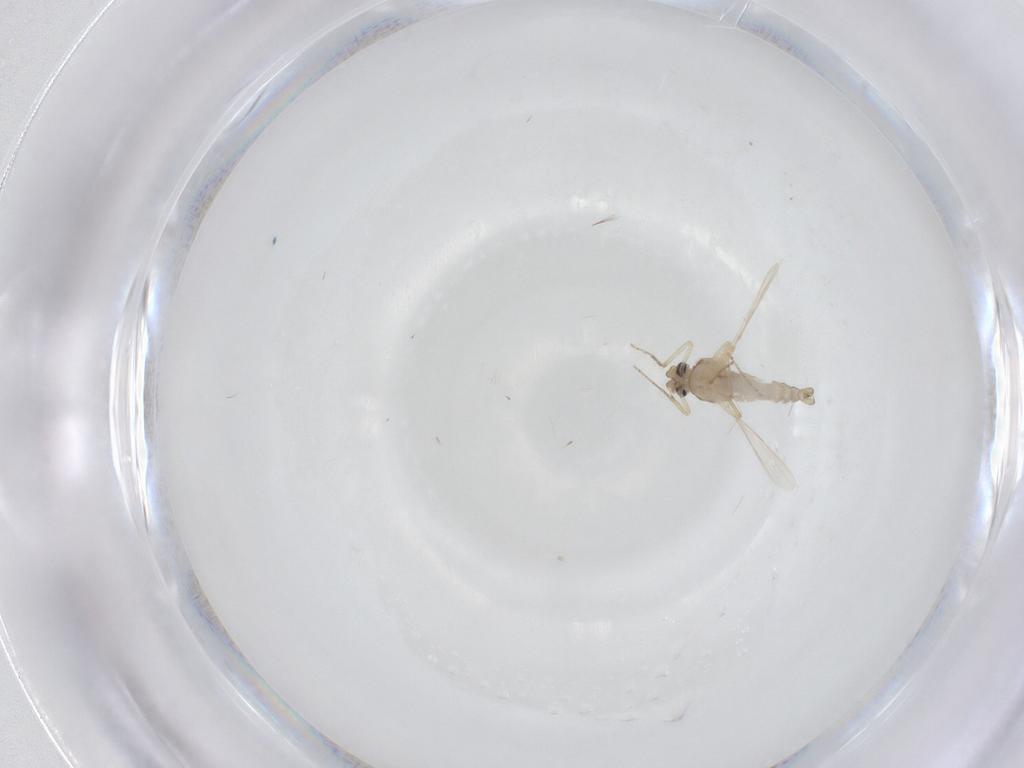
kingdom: Animalia
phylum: Arthropoda
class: Insecta
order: Diptera
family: Ceratopogonidae
